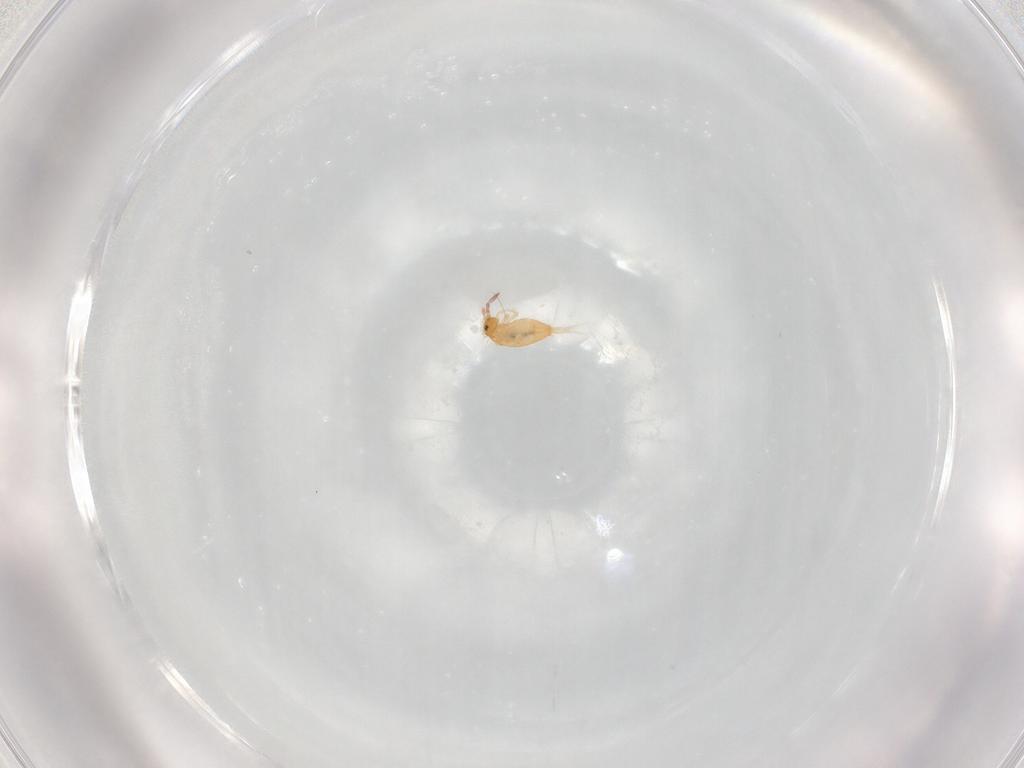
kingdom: Animalia
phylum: Arthropoda
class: Collembola
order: Entomobryomorpha
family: Entomobryidae
